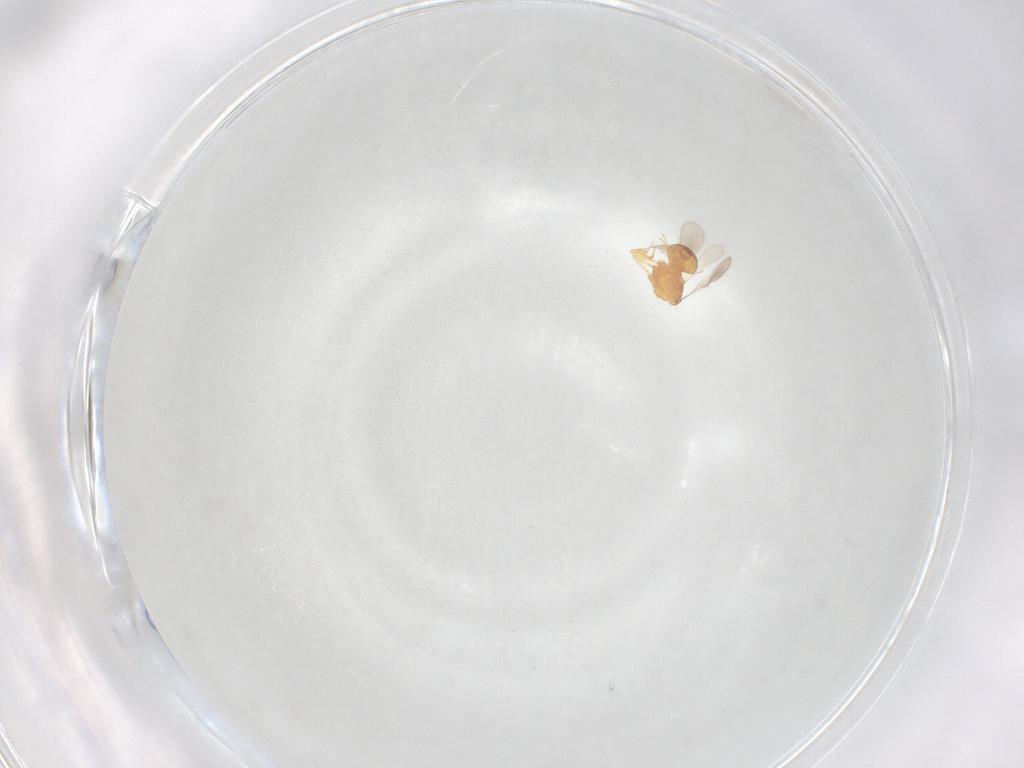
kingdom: Animalia
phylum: Arthropoda
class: Insecta
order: Hymenoptera
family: Scelionidae
